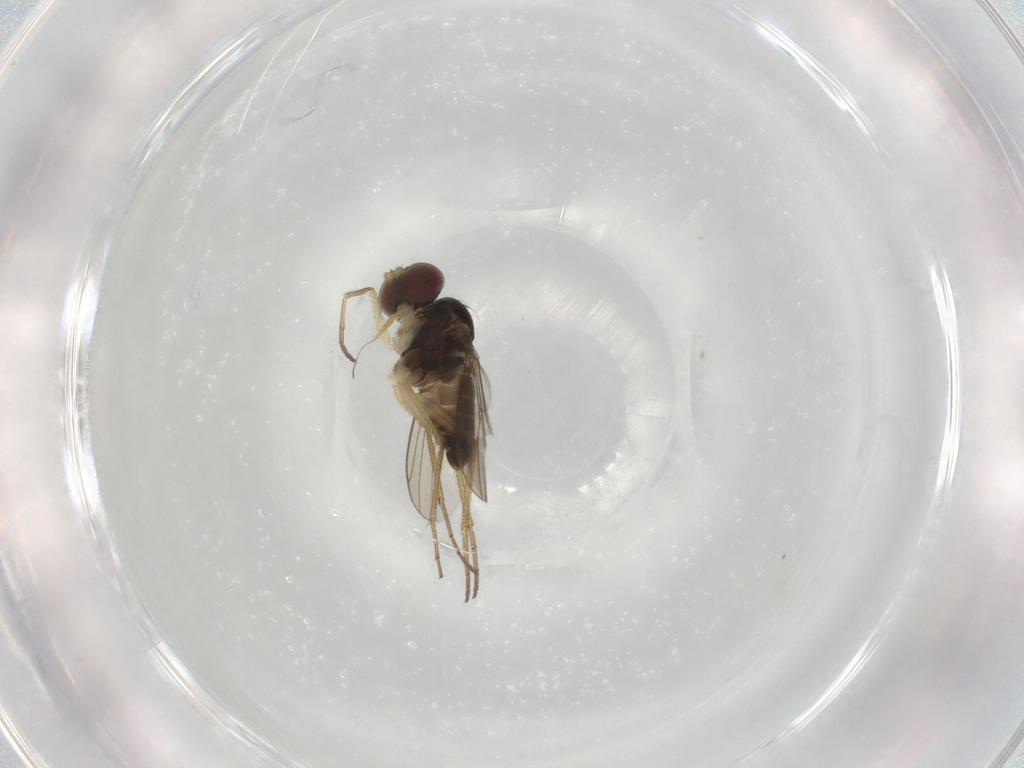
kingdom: Animalia
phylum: Arthropoda
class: Insecta
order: Diptera
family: Dolichopodidae
